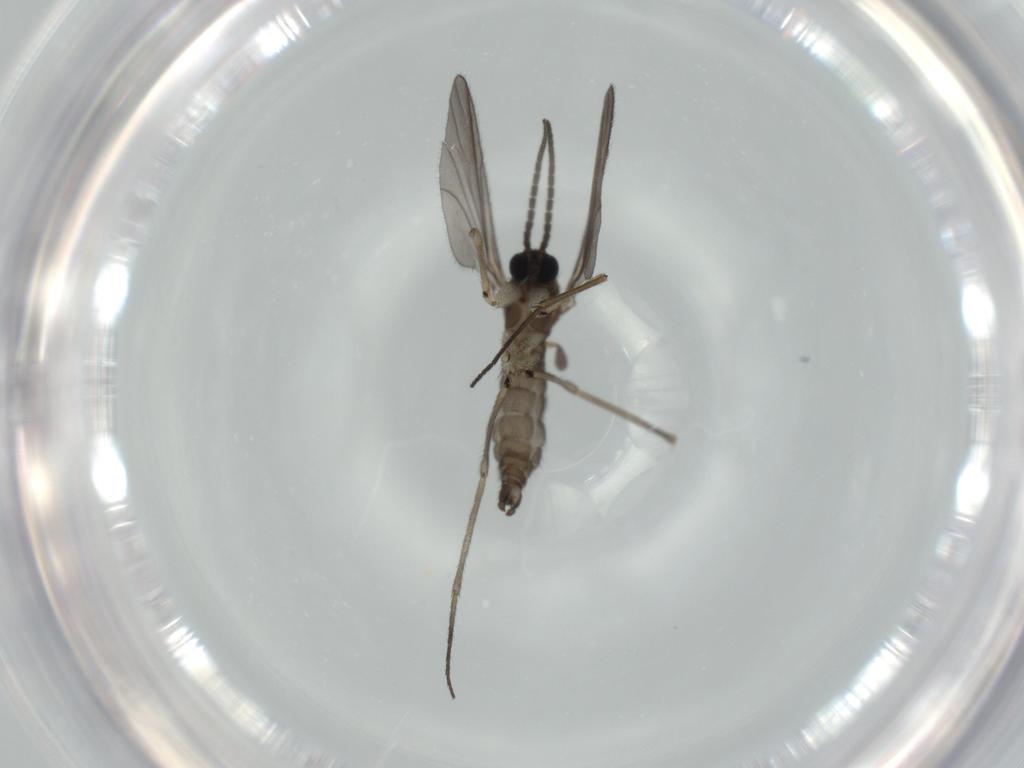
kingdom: Animalia
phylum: Arthropoda
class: Insecta
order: Diptera
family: Sciaridae
